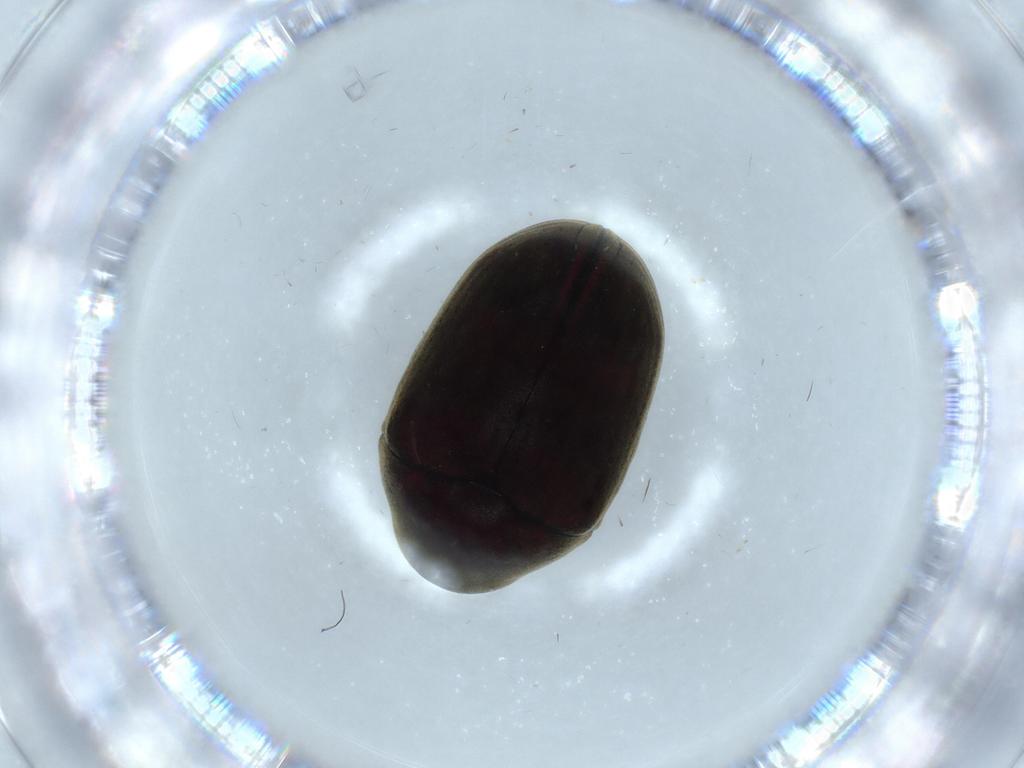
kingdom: Animalia
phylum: Arthropoda
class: Insecta
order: Coleoptera
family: Ptinidae
